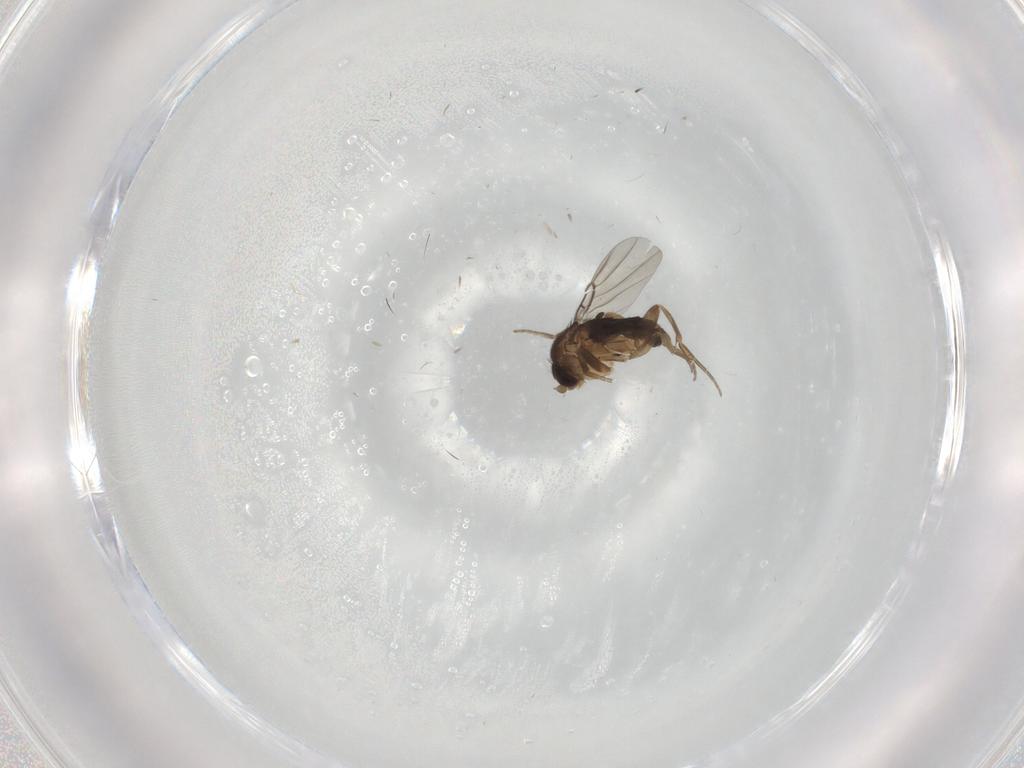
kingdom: Animalia
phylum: Arthropoda
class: Insecta
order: Diptera
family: Phoridae
